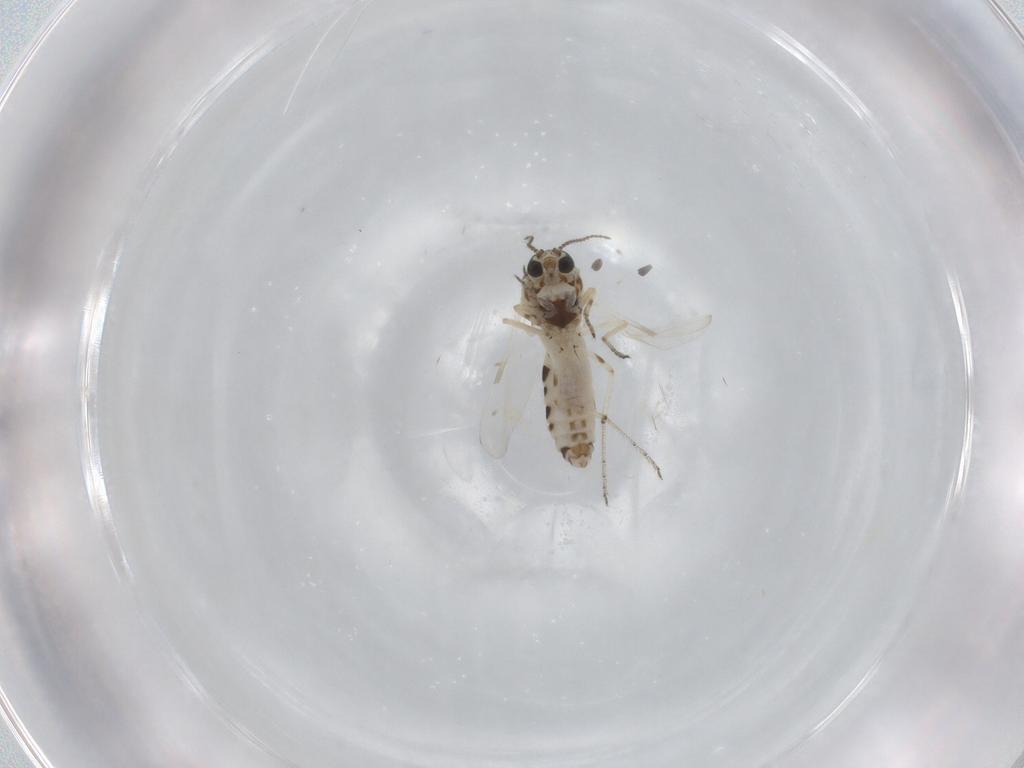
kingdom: Animalia
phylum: Arthropoda
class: Insecta
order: Diptera
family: Ceratopogonidae
